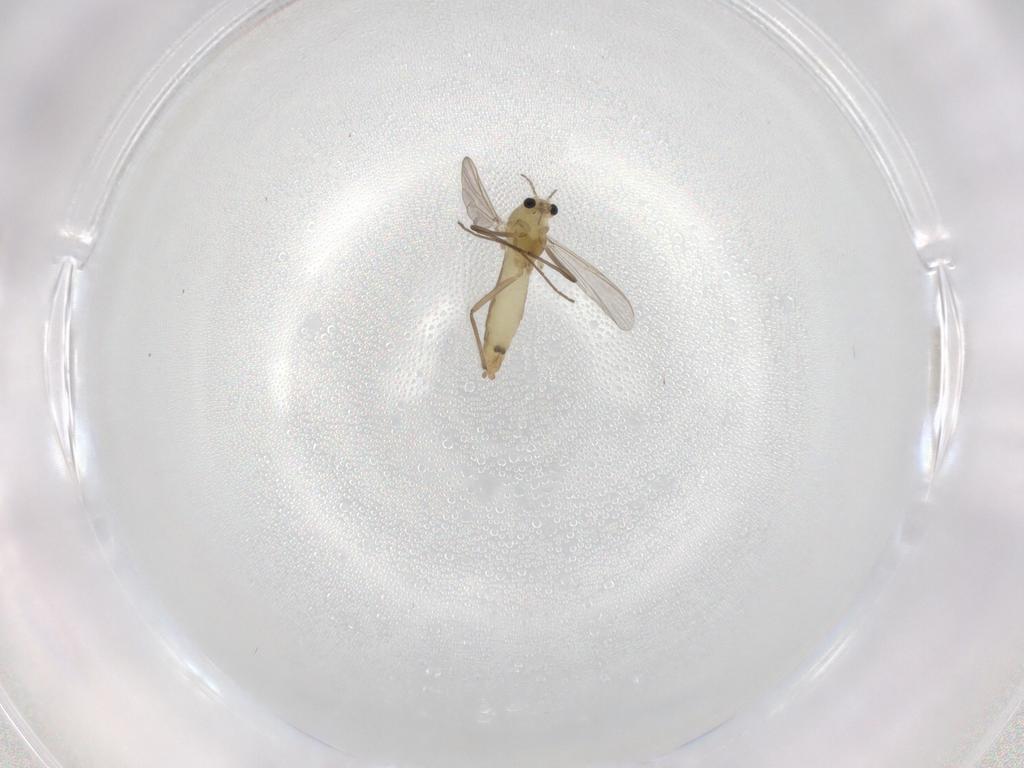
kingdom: Animalia
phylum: Arthropoda
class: Insecta
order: Diptera
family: Chironomidae
